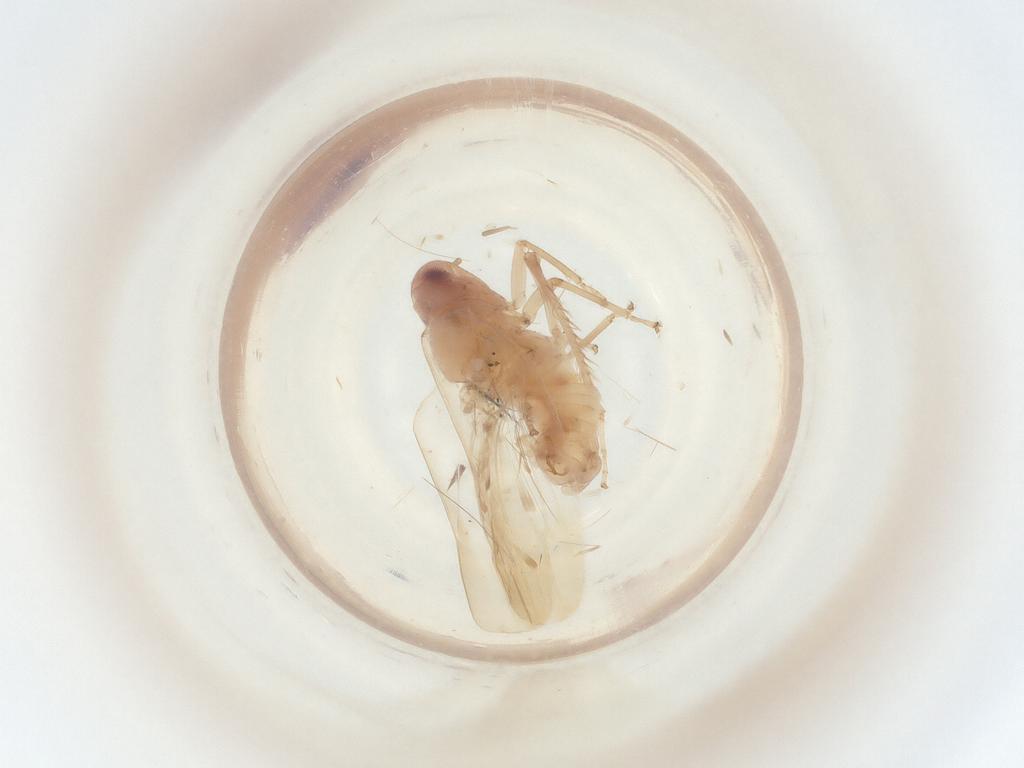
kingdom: Animalia
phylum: Arthropoda
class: Insecta
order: Hemiptera
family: Cicadellidae
